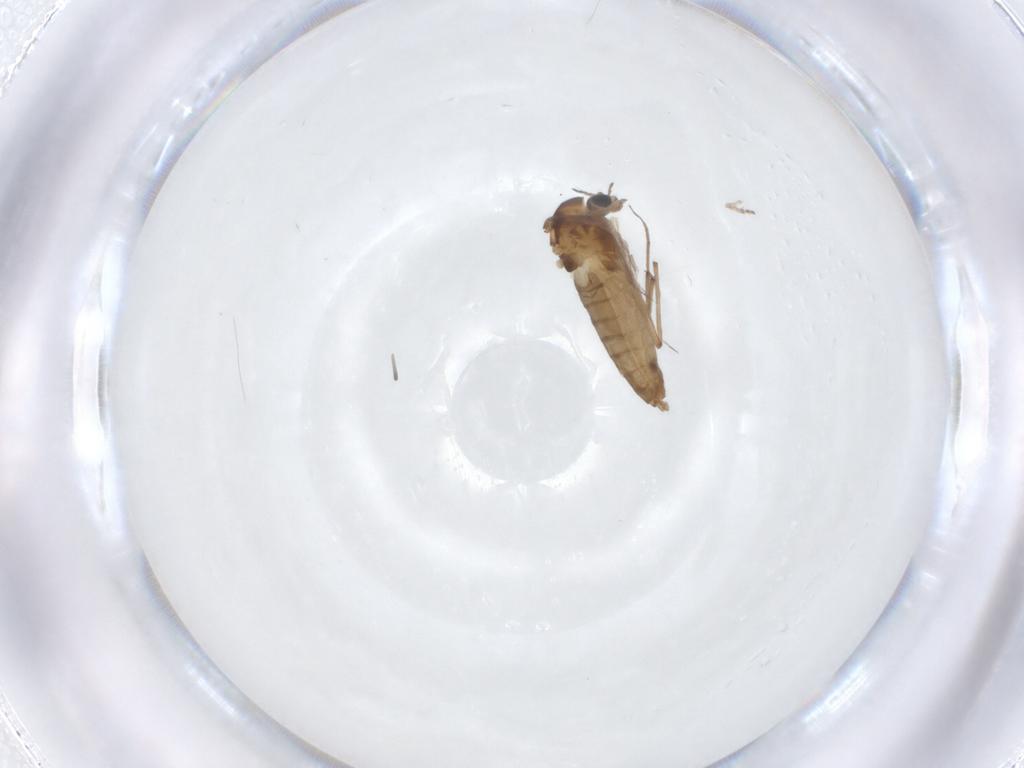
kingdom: Animalia
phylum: Arthropoda
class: Insecta
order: Diptera
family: Chironomidae
